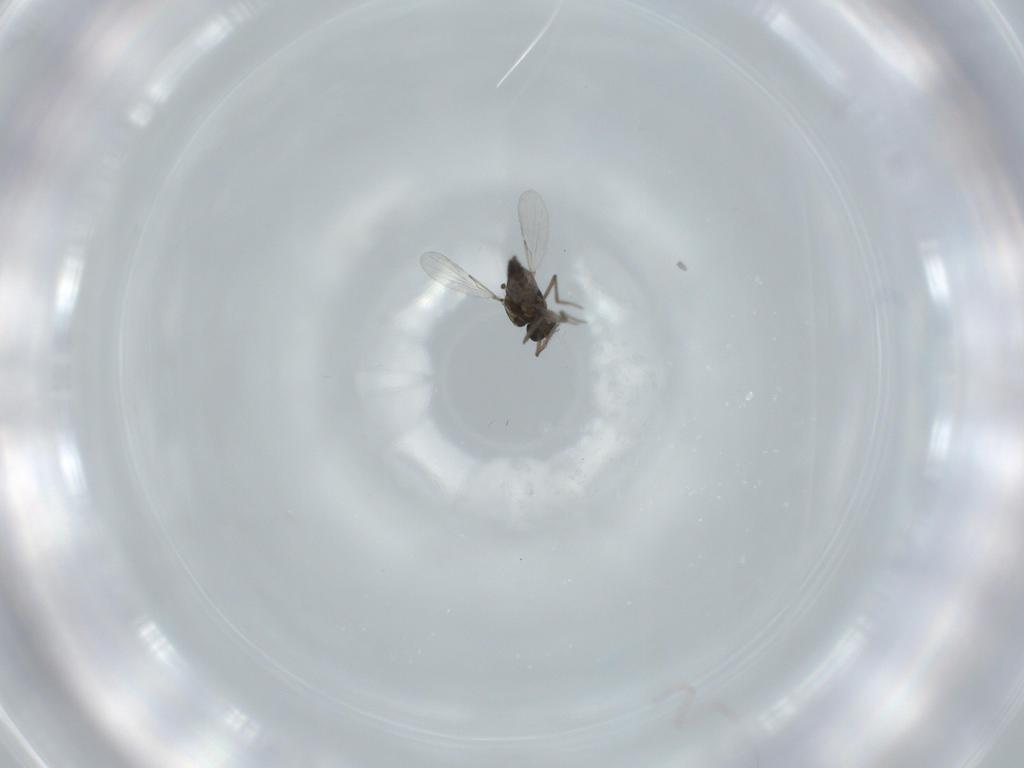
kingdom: Animalia
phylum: Arthropoda
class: Insecta
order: Diptera
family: Ceratopogonidae
